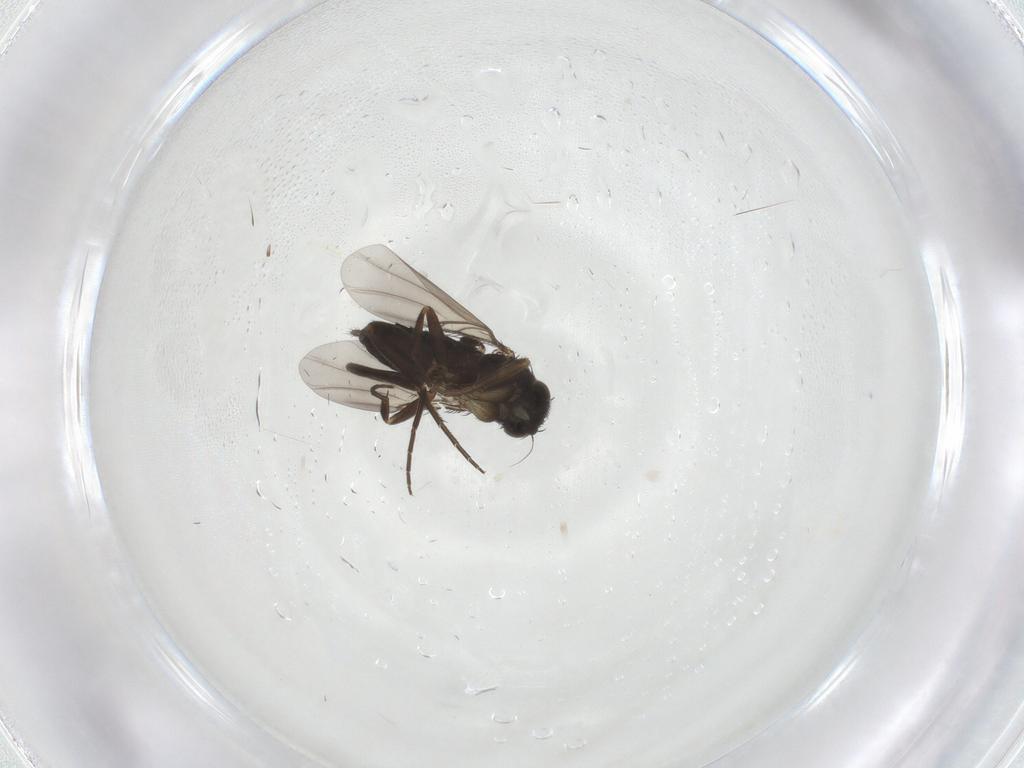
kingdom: Animalia
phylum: Arthropoda
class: Insecta
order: Diptera
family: Phoridae
